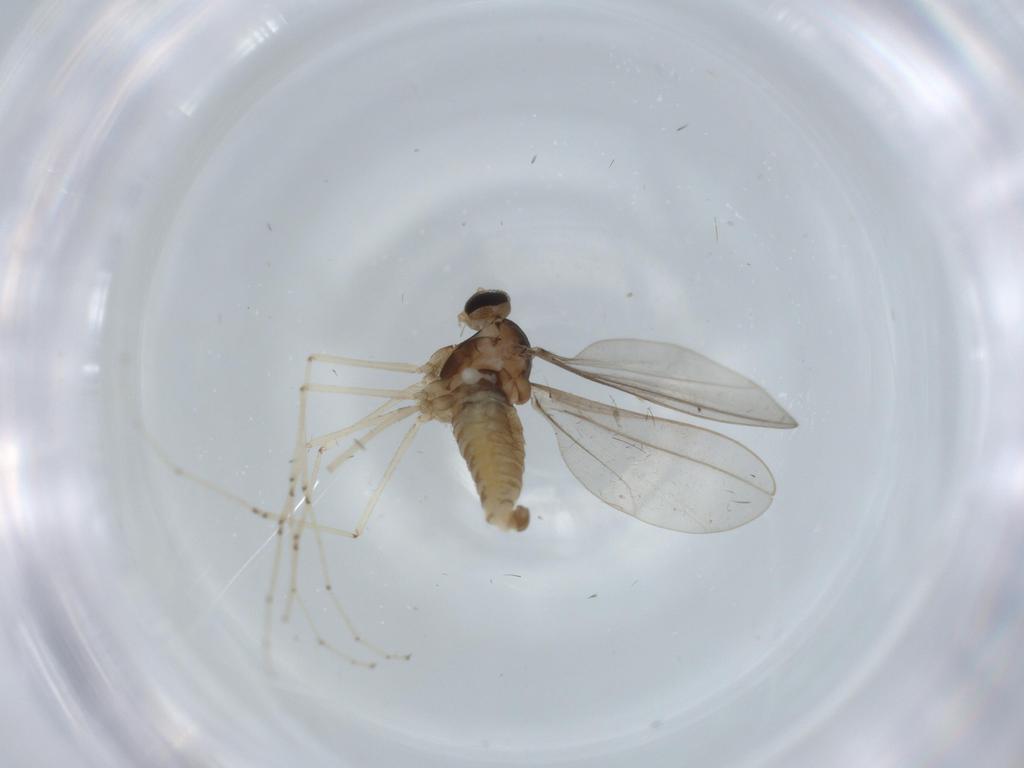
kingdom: Animalia
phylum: Arthropoda
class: Insecta
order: Diptera
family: Cecidomyiidae
